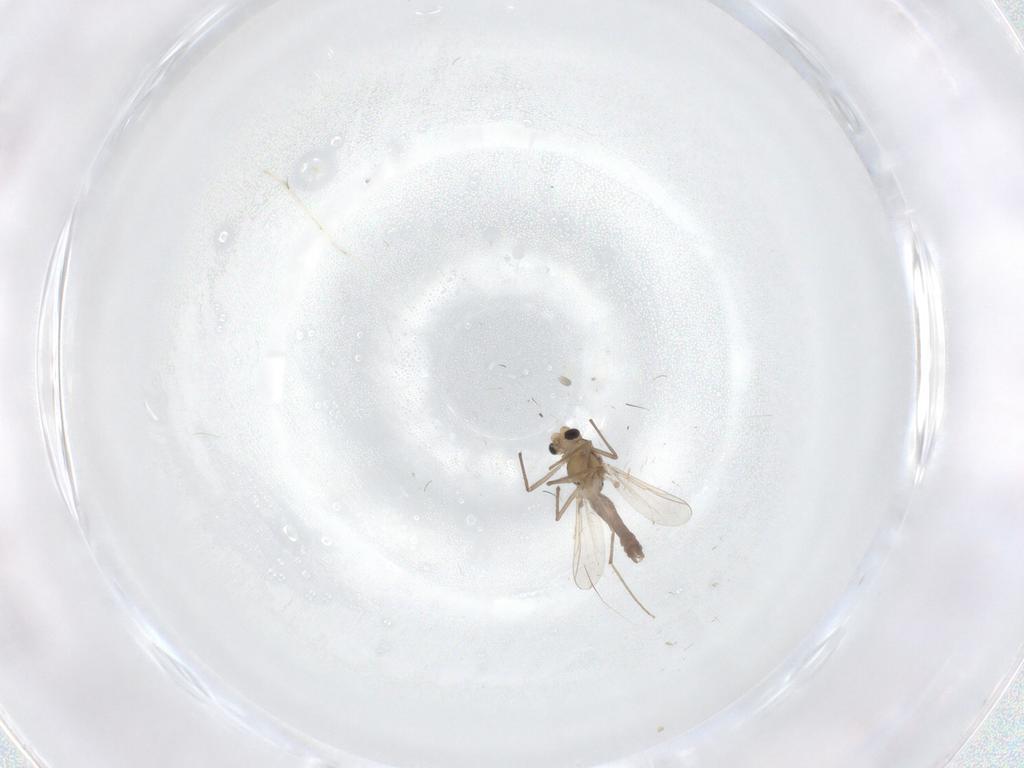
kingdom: Animalia
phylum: Arthropoda
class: Insecta
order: Diptera
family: Chironomidae
